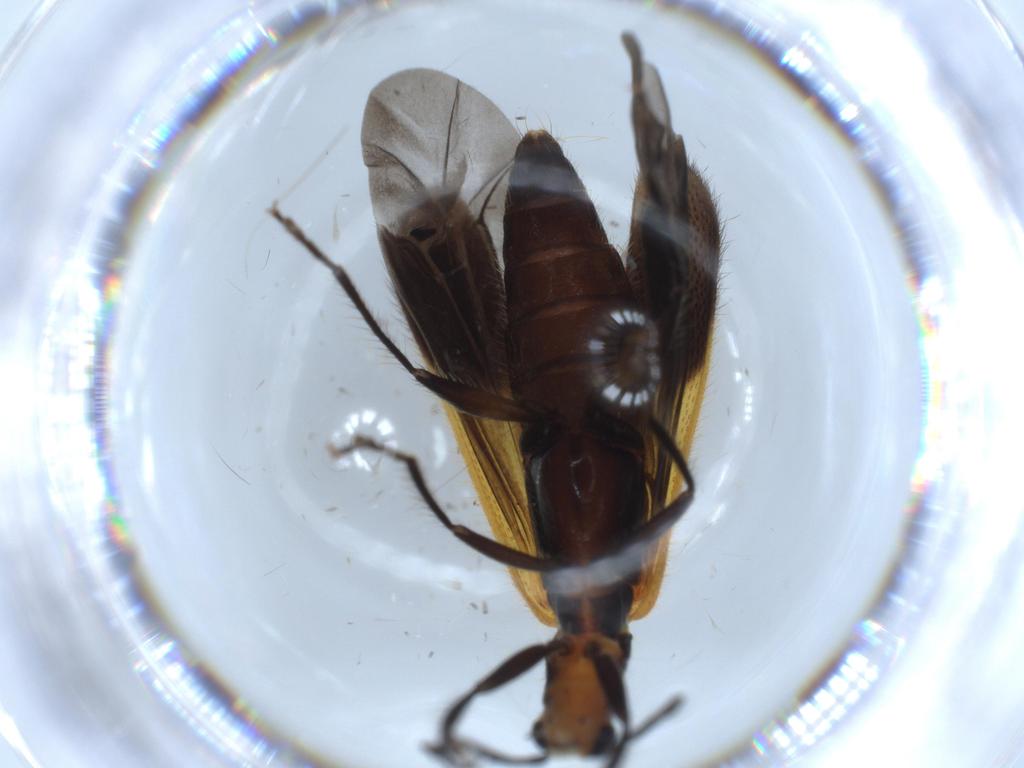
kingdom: Animalia
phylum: Arthropoda
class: Insecta
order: Coleoptera
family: Cleridae
